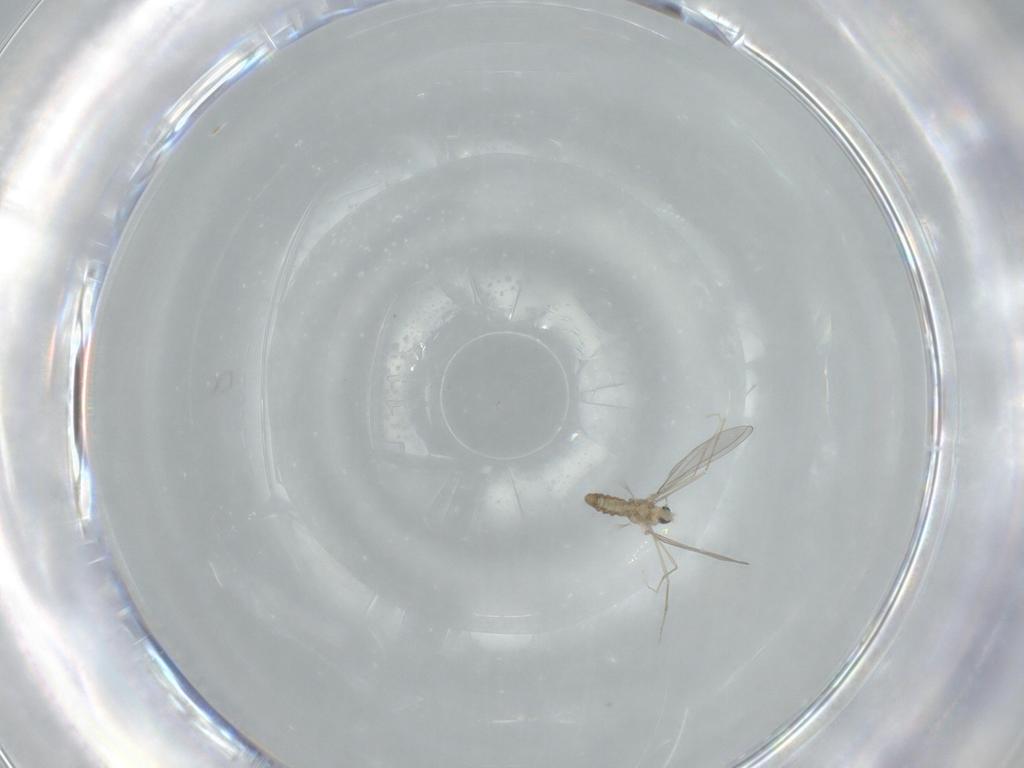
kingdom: Animalia
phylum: Arthropoda
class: Insecta
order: Diptera
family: Cecidomyiidae
